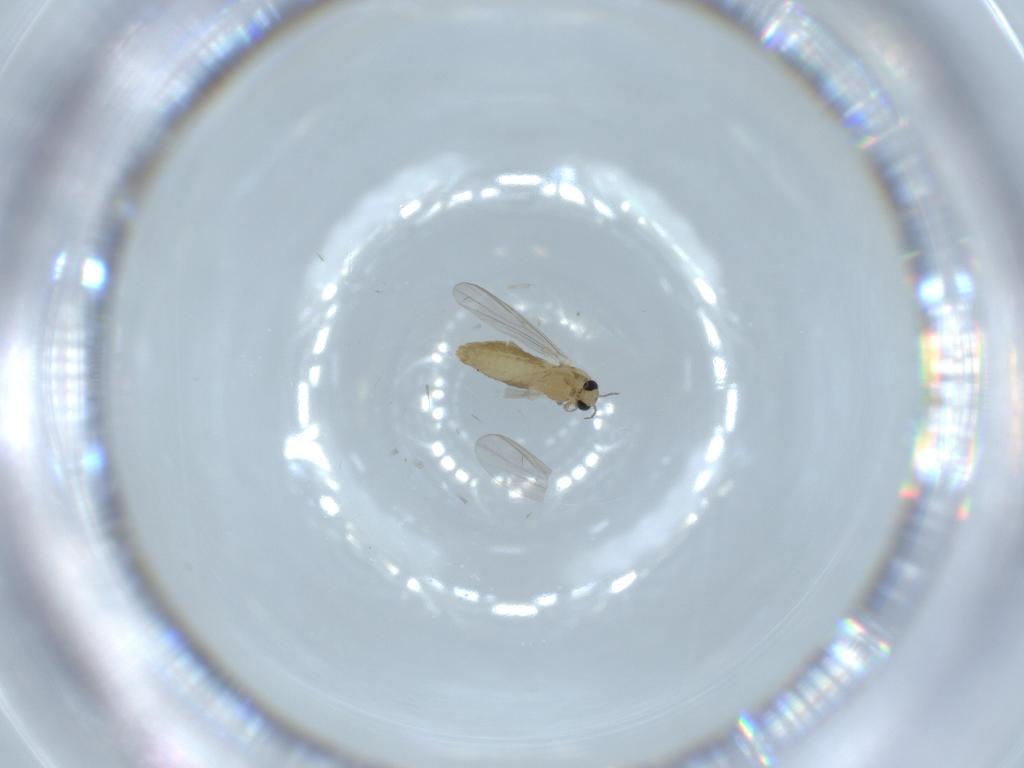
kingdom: Animalia
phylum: Arthropoda
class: Insecta
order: Diptera
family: Chironomidae
